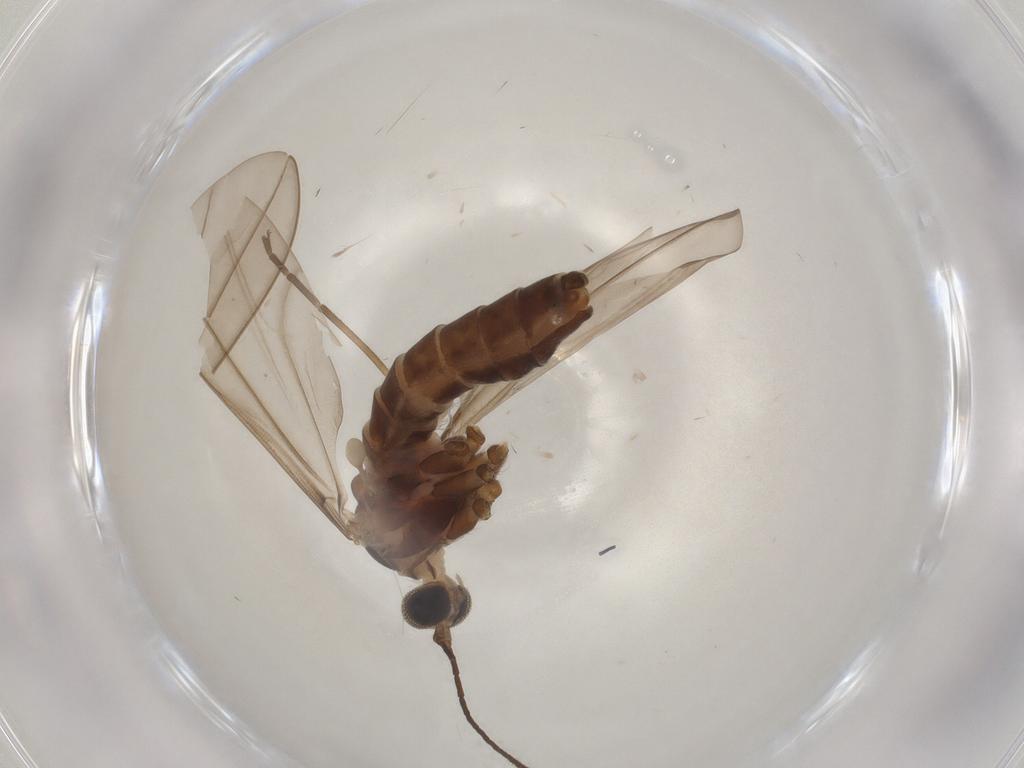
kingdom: Animalia
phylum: Arthropoda
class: Insecta
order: Diptera
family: Cecidomyiidae
